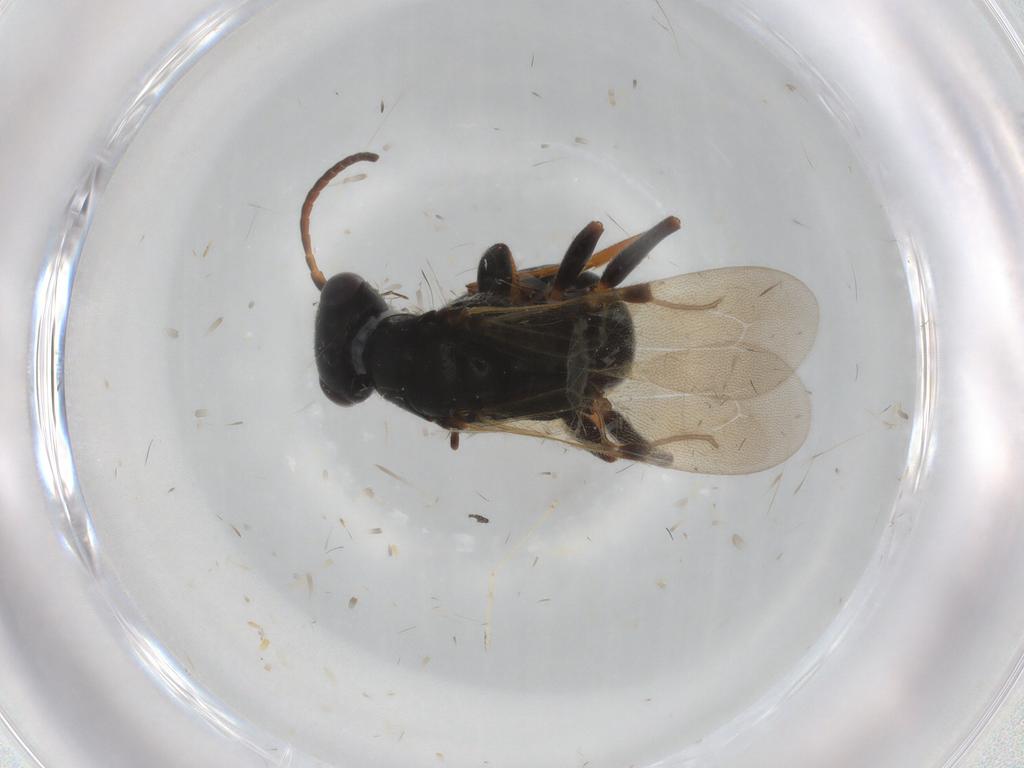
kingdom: Animalia
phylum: Arthropoda
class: Insecta
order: Hymenoptera
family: Bethylidae
